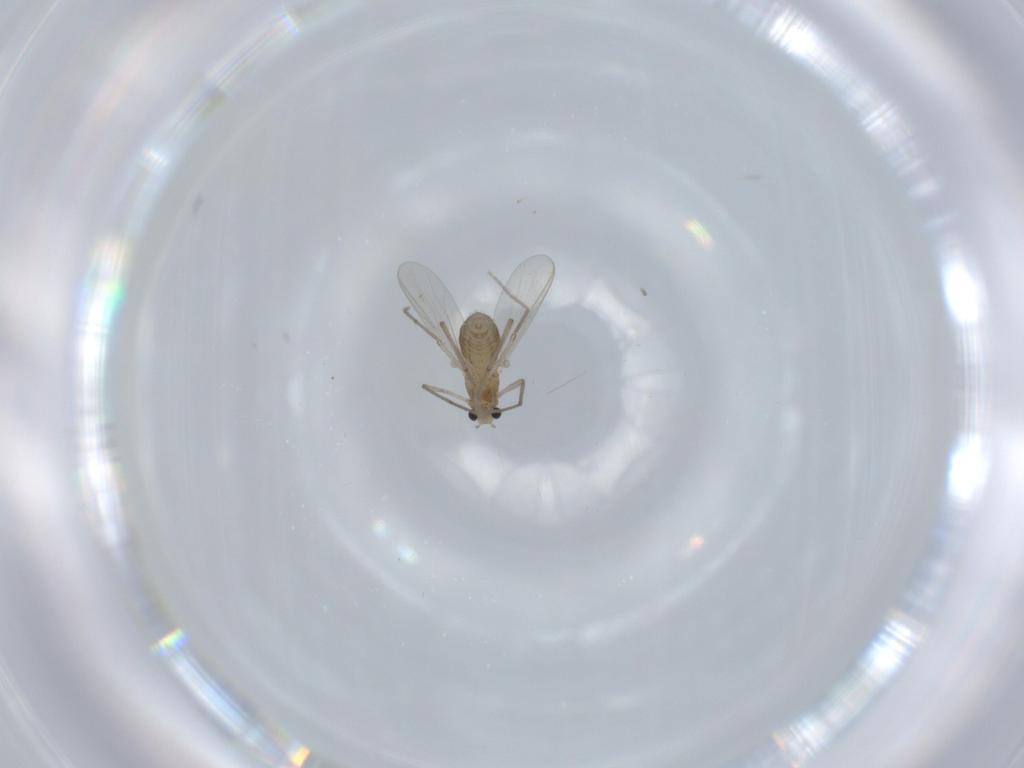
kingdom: Animalia
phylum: Arthropoda
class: Insecta
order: Diptera
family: Chironomidae
